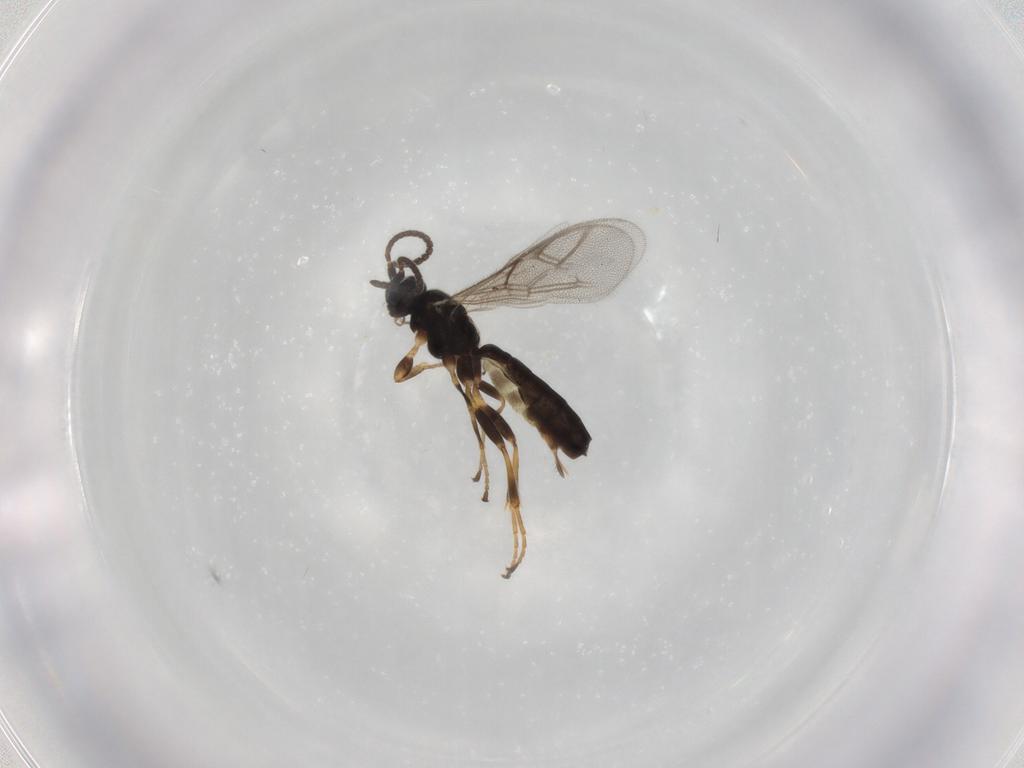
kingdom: Animalia
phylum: Arthropoda
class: Insecta
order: Hymenoptera
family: Ichneumonidae
